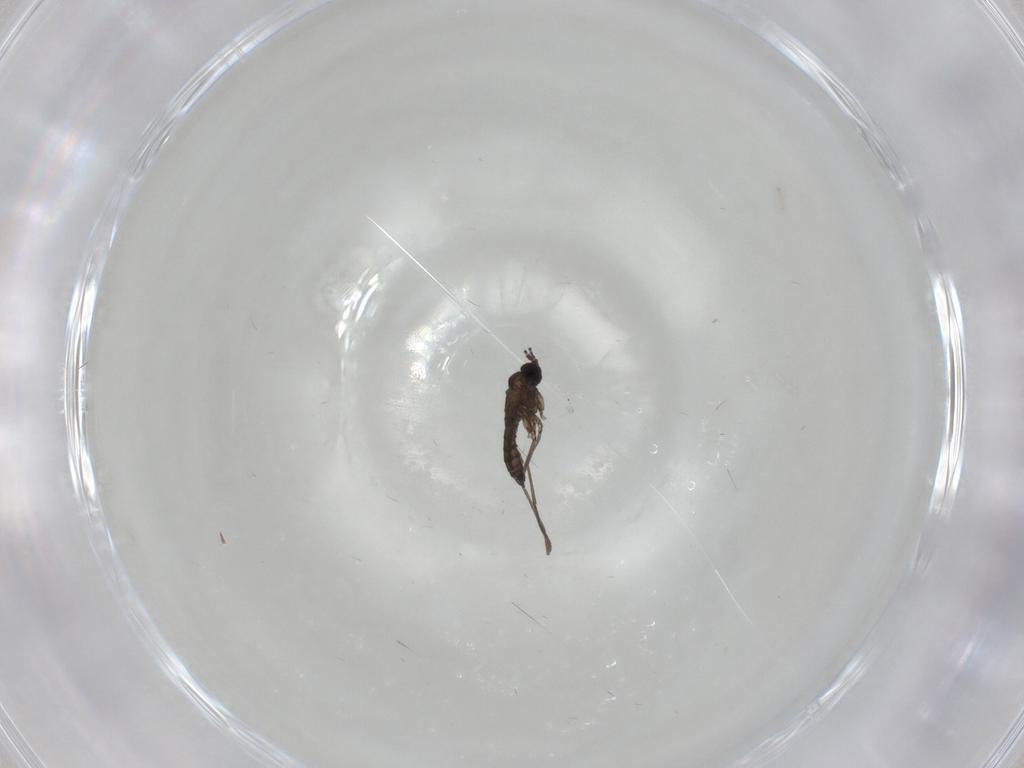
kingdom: Animalia
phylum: Arthropoda
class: Insecta
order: Diptera
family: Sciaridae
